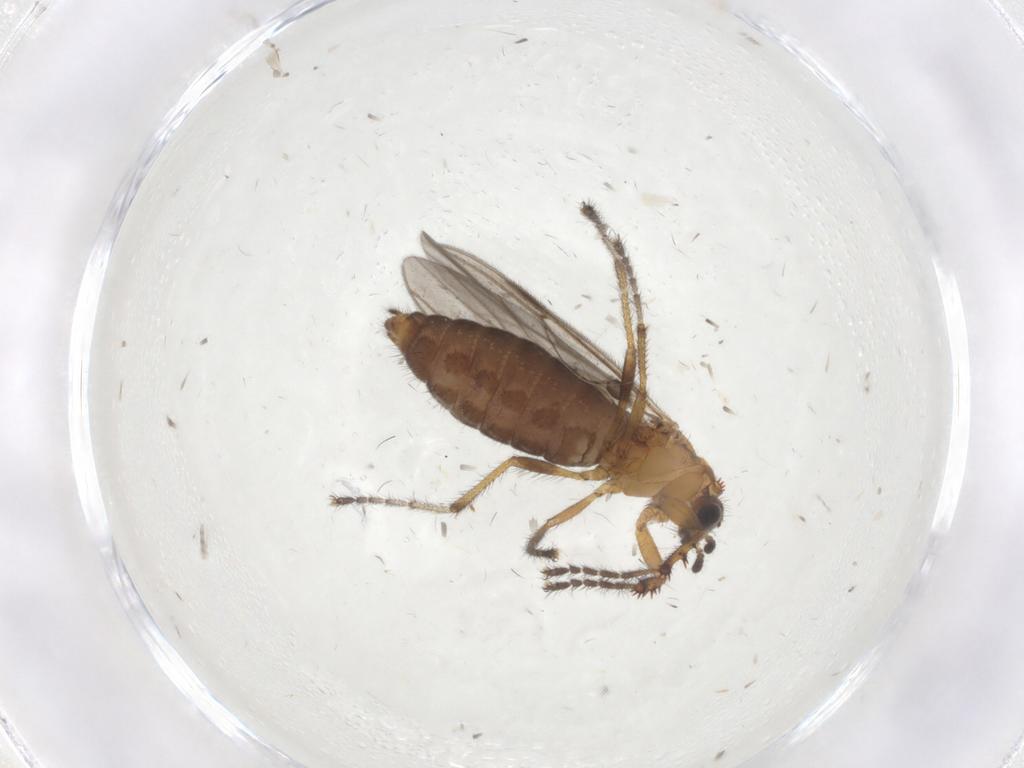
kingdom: Animalia
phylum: Arthropoda
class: Insecta
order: Diptera
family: Bibionidae
